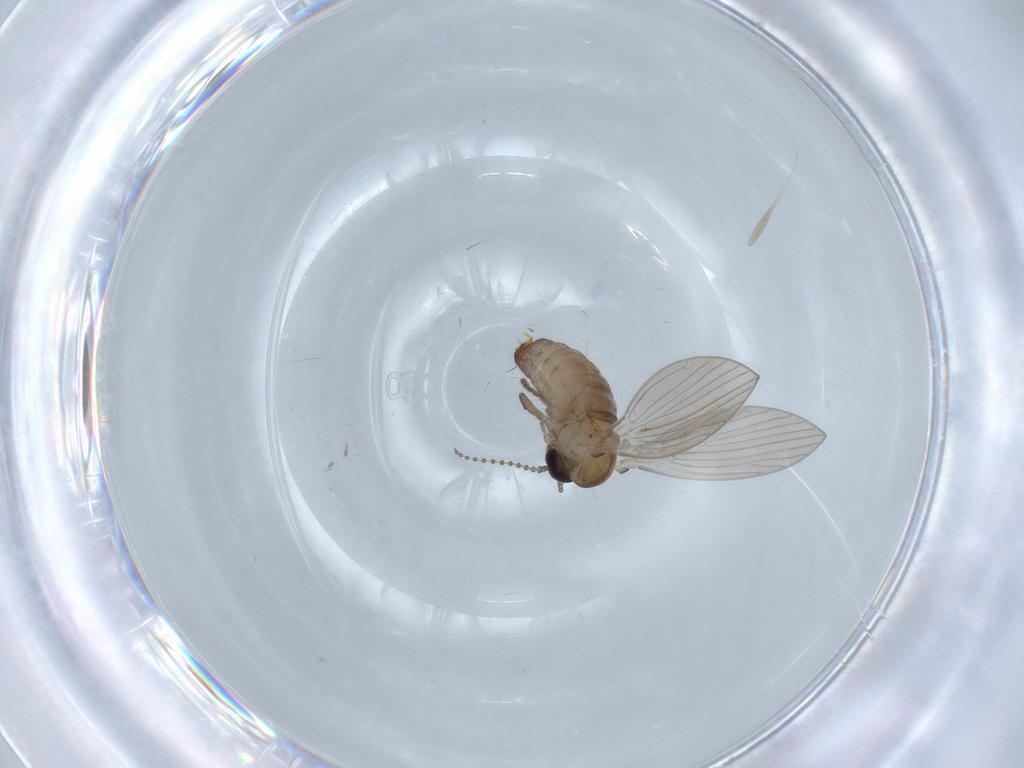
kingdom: Animalia
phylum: Arthropoda
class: Insecta
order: Diptera
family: Psychodidae
